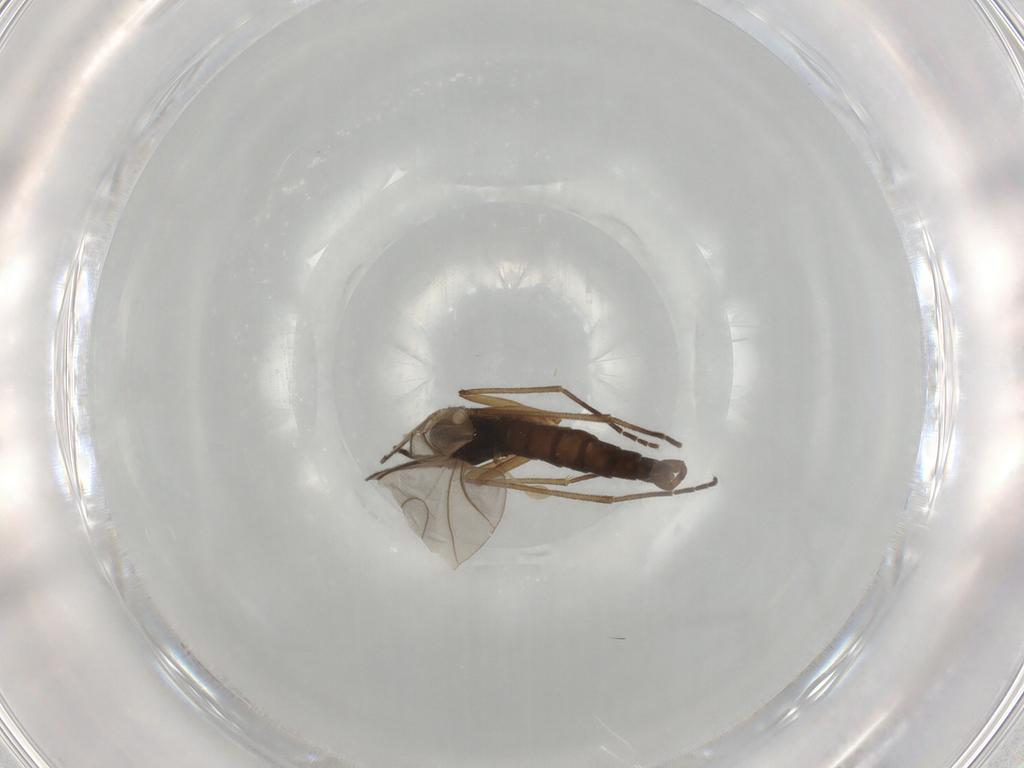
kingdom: Animalia
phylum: Arthropoda
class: Insecta
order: Diptera
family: Sciaridae
